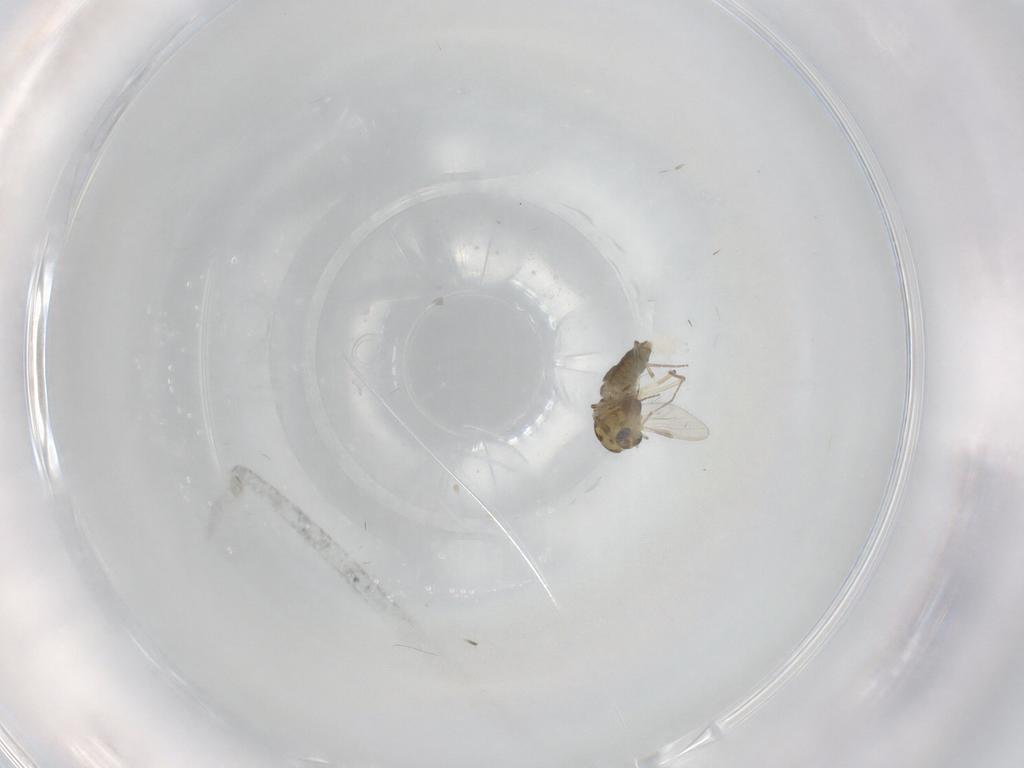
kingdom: Animalia
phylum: Arthropoda
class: Insecta
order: Diptera
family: Chironomidae
